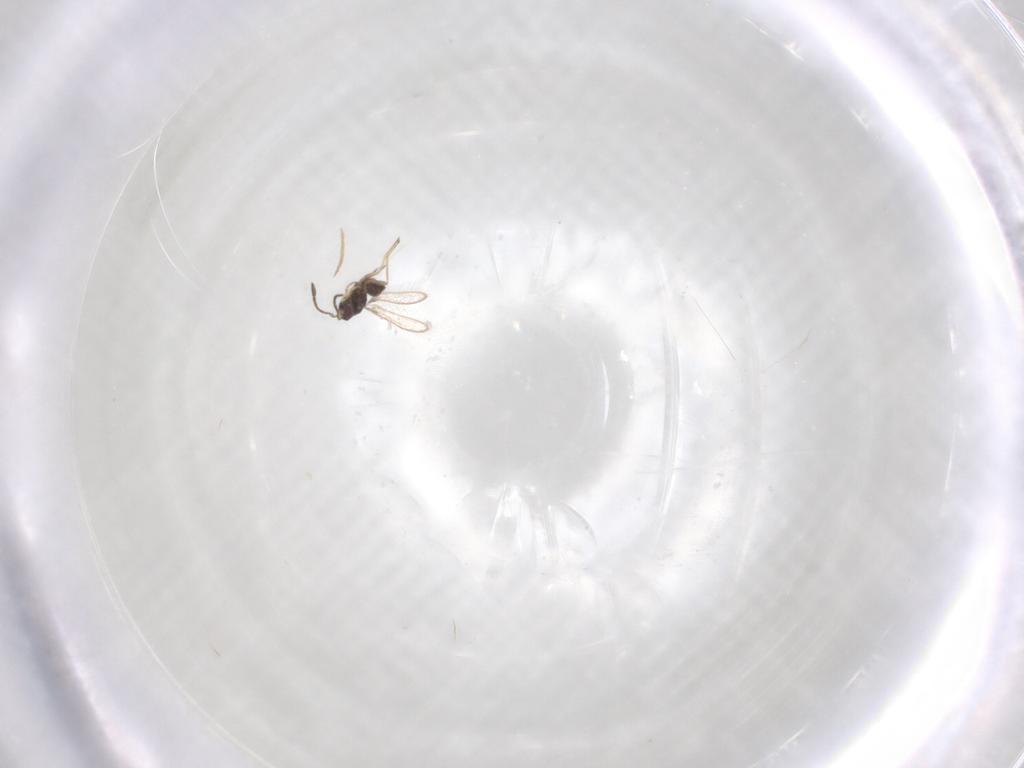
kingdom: Animalia
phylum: Arthropoda
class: Insecta
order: Hymenoptera
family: Mymaridae
